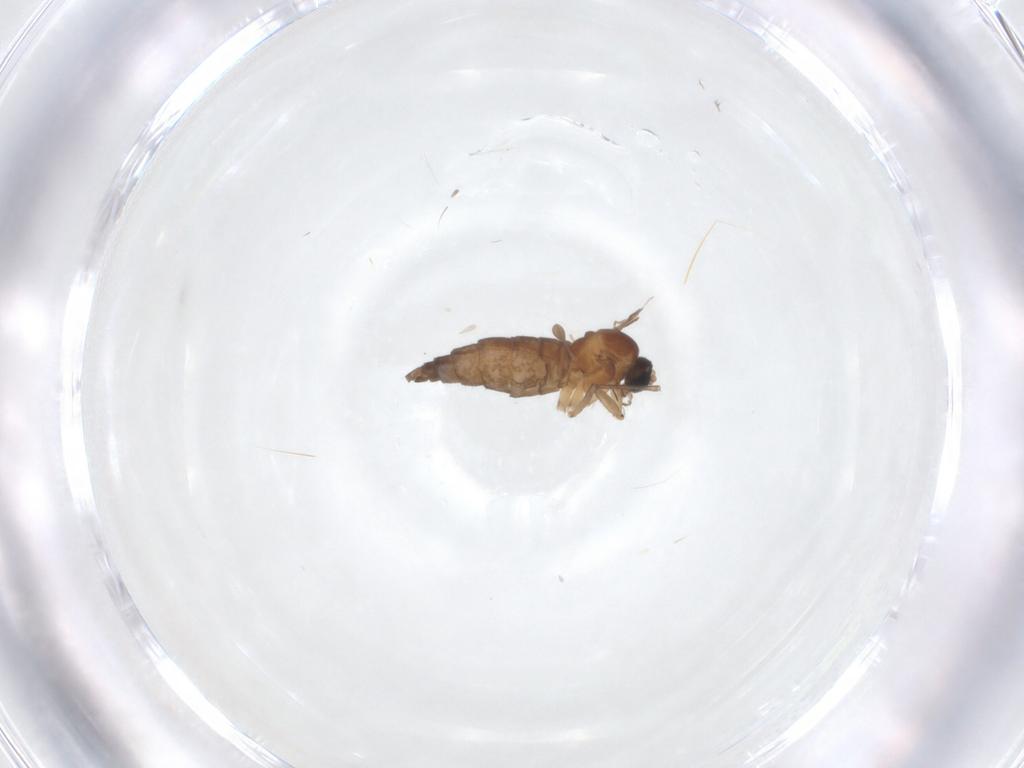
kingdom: Animalia
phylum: Arthropoda
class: Insecta
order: Diptera
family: Sciaridae
